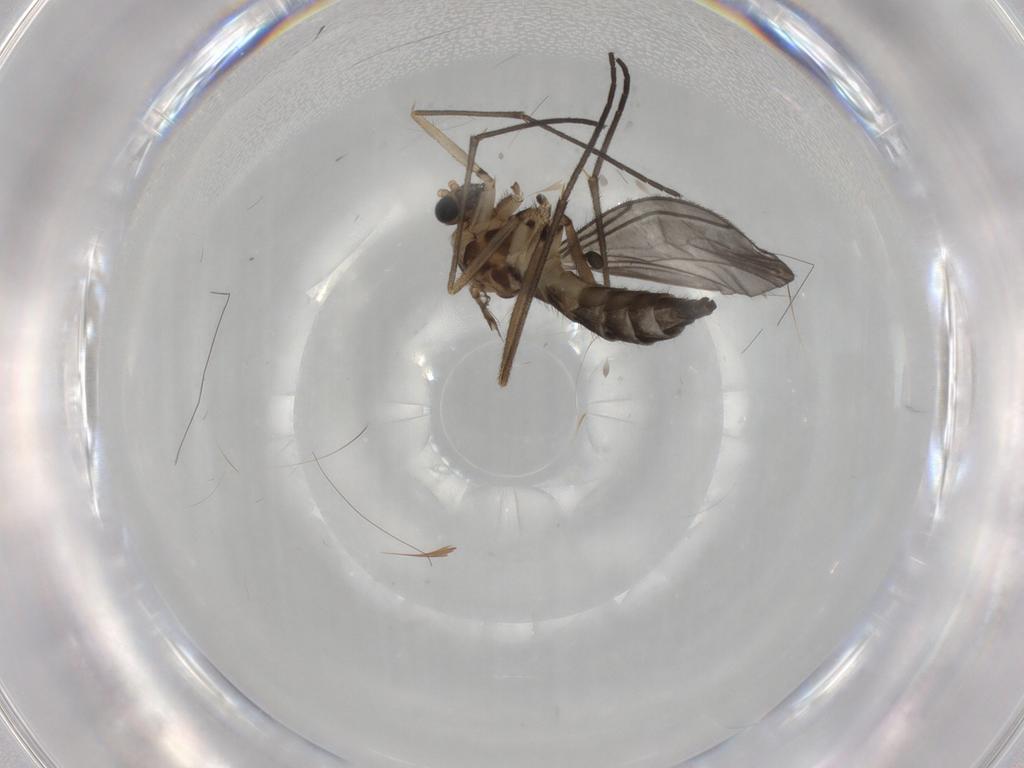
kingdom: Animalia
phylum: Arthropoda
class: Insecta
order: Diptera
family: Sciaridae
